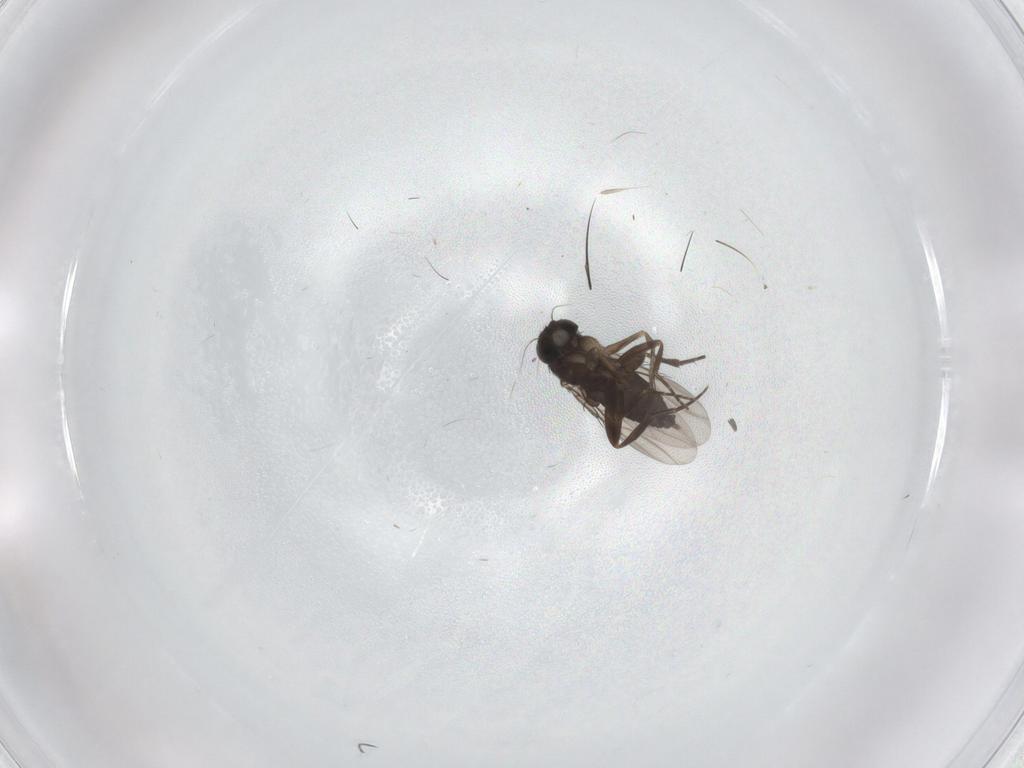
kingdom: Animalia
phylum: Arthropoda
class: Insecta
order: Diptera
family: Phoridae
